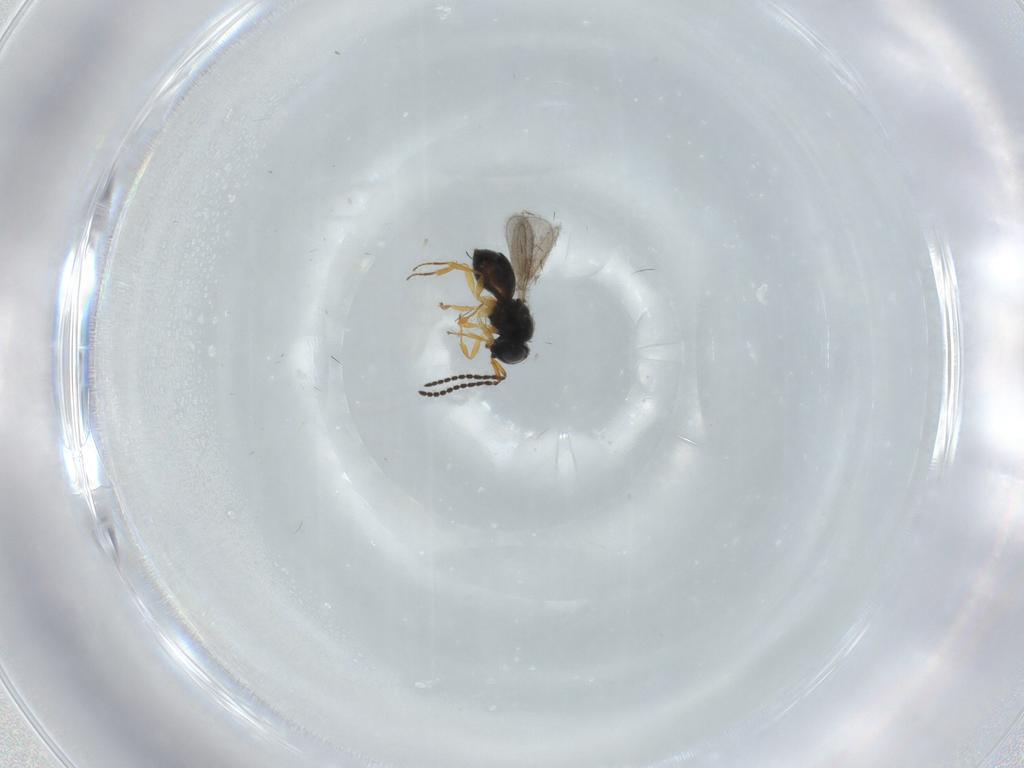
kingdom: Animalia
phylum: Arthropoda
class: Insecta
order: Hymenoptera
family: Scelionidae
